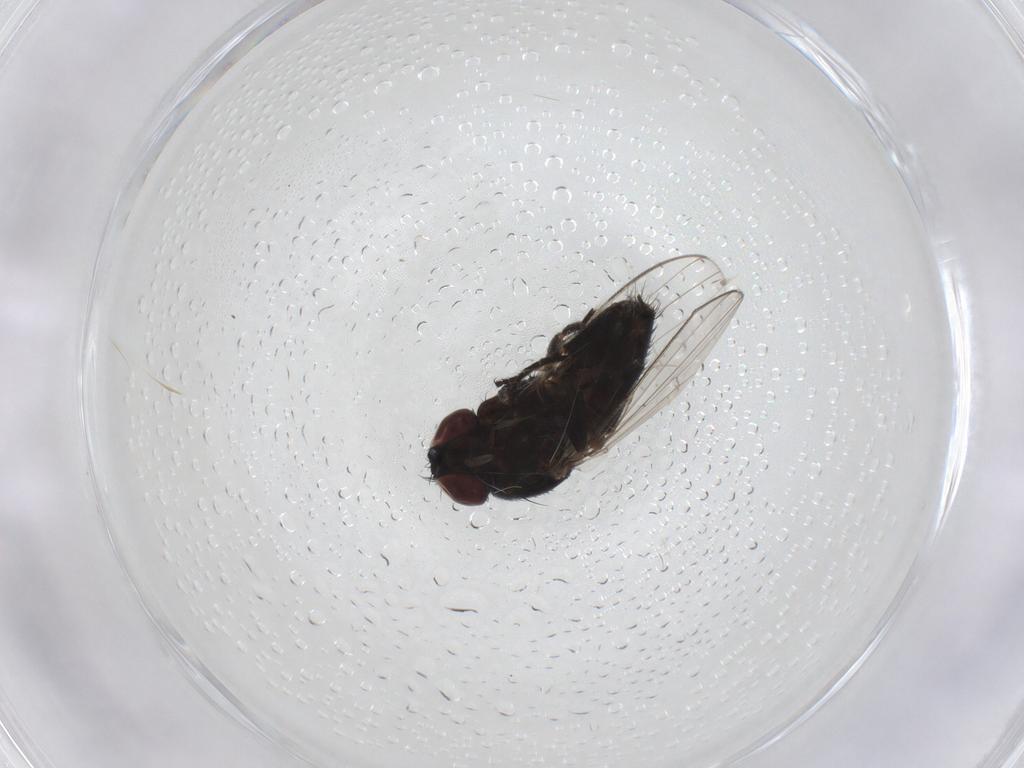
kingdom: Animalia
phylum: Arthropoda
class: Insecta
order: Diptera
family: Milichiidae
